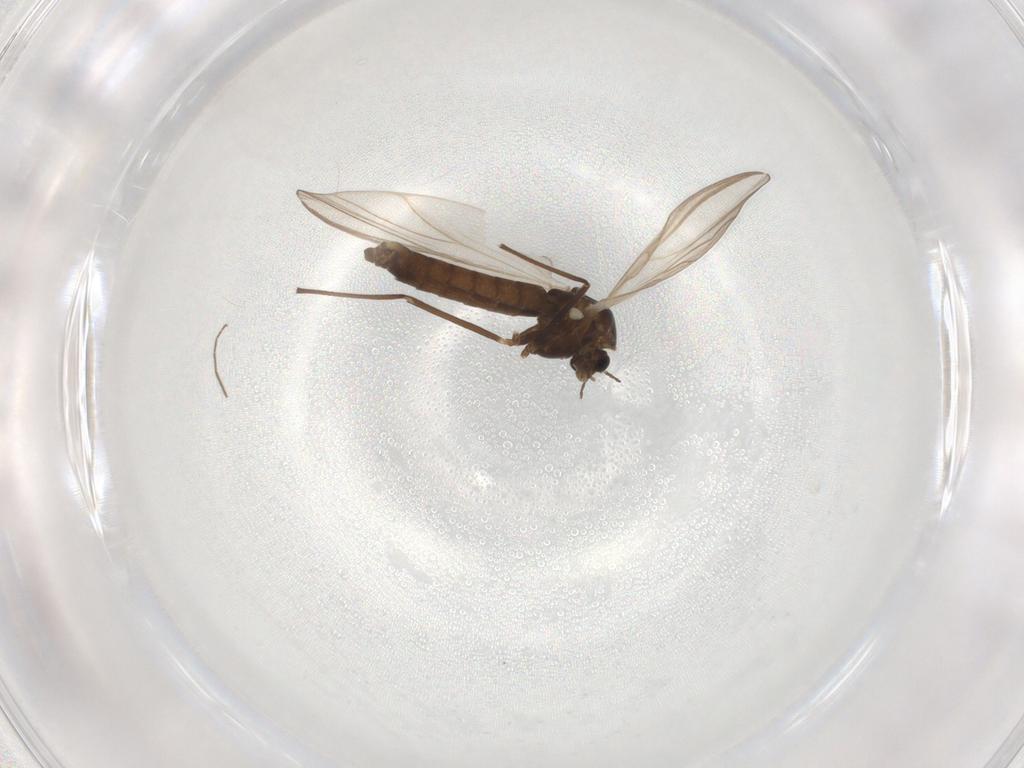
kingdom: Animalia
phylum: Arthropoda
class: Insecta
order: Diptera
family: Chironomidae
